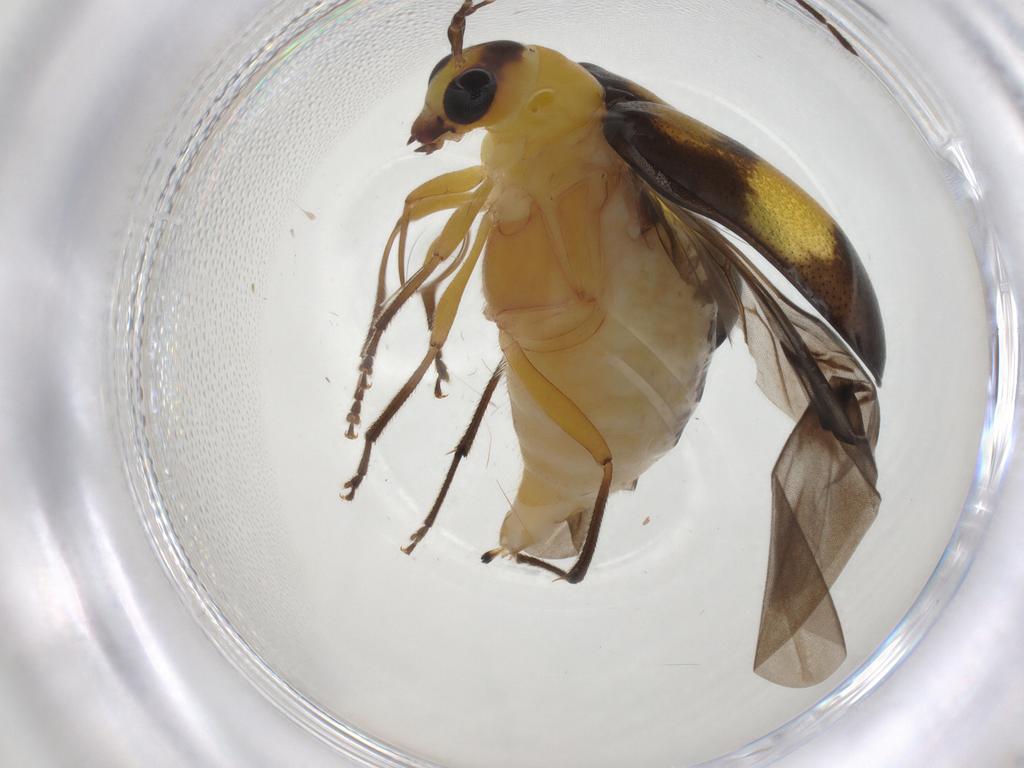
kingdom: Animalia
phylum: Arthropoda
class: Insecta
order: Coleoptera
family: Chrysomelidae
